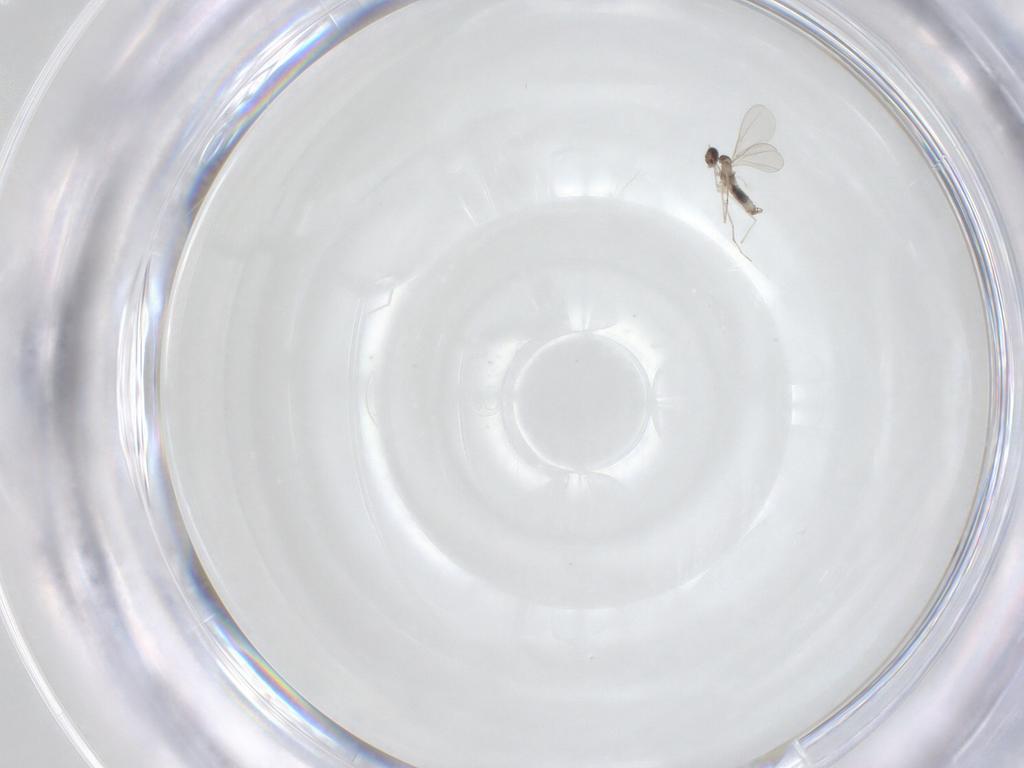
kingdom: Animalia
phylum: Arthropoda
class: Insecta
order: Diptera
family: Cecidomyiidae
